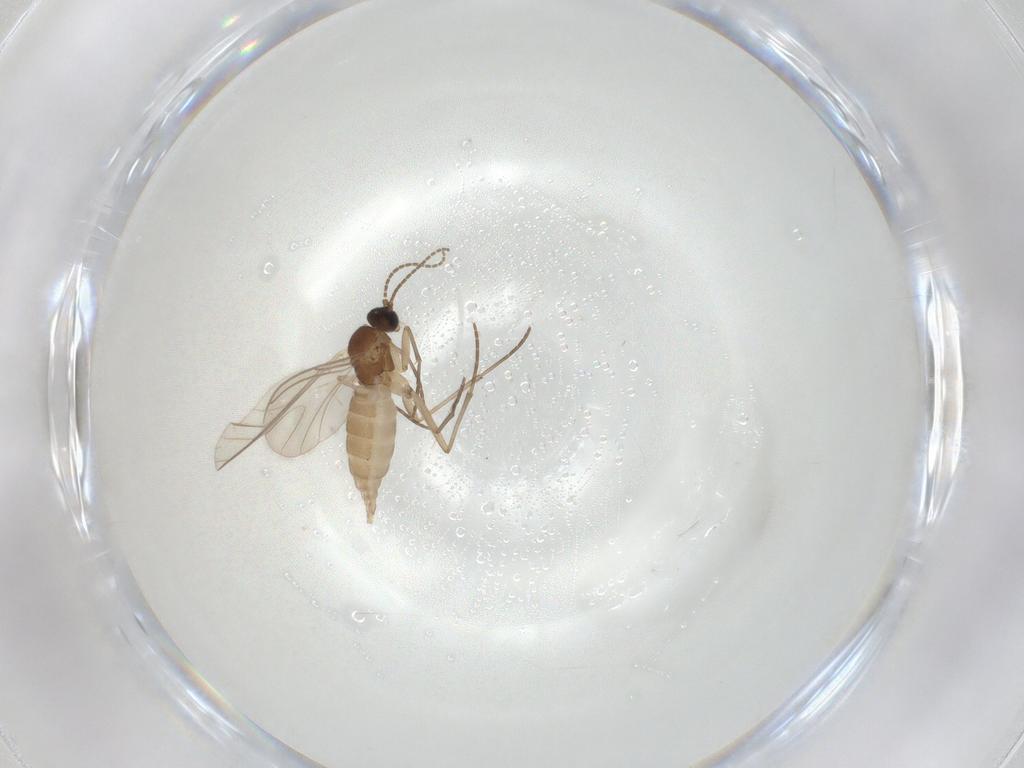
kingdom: Animalia
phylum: Arthropoda
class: Insecta
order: Diptera
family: Sciaridae
